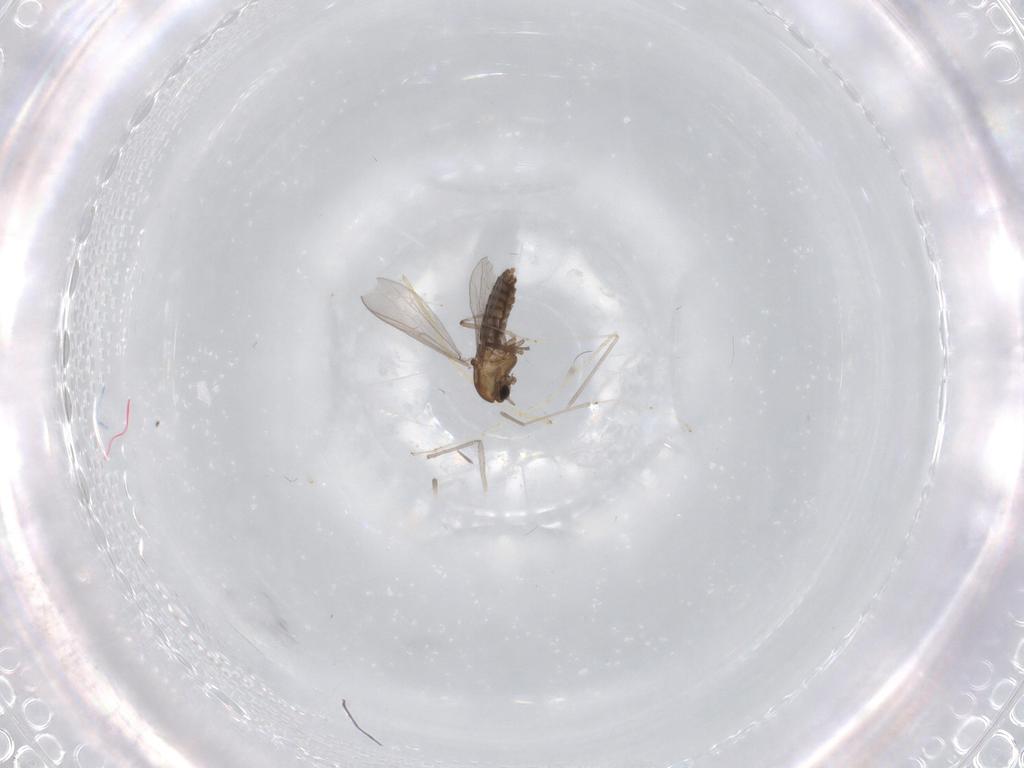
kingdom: Animalia
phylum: Arthropoda
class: Insecta
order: Diptera
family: Chironomidae
